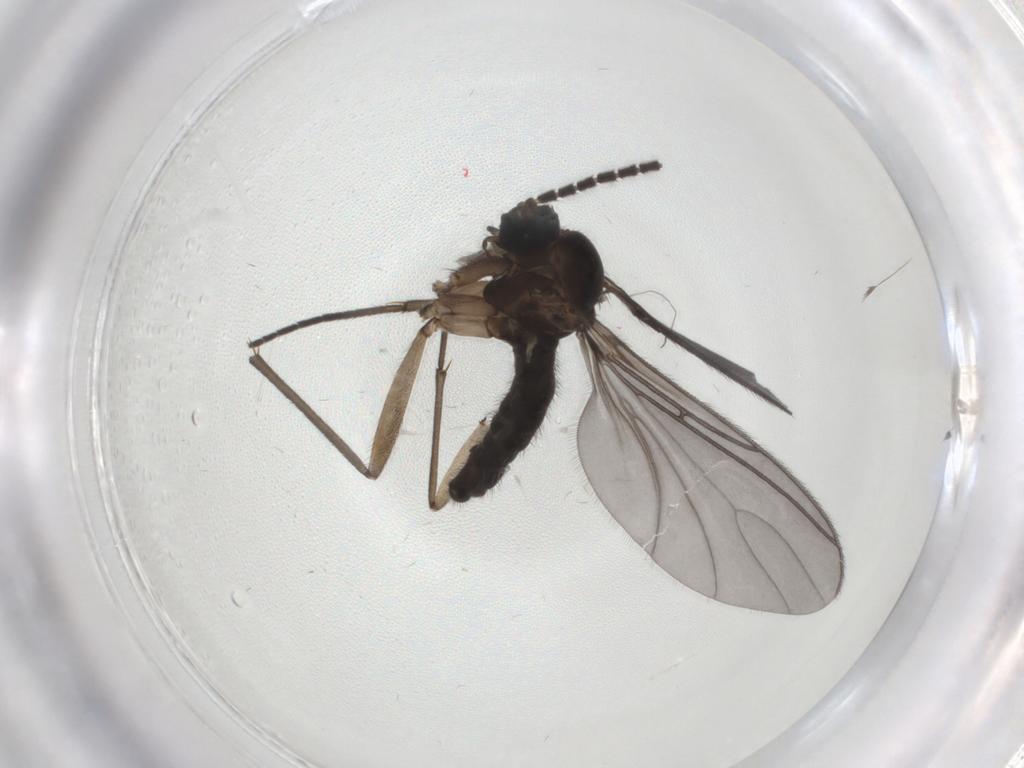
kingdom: Animalia
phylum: Arthropoda
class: Insecta
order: Diptera
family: Sciaridae
